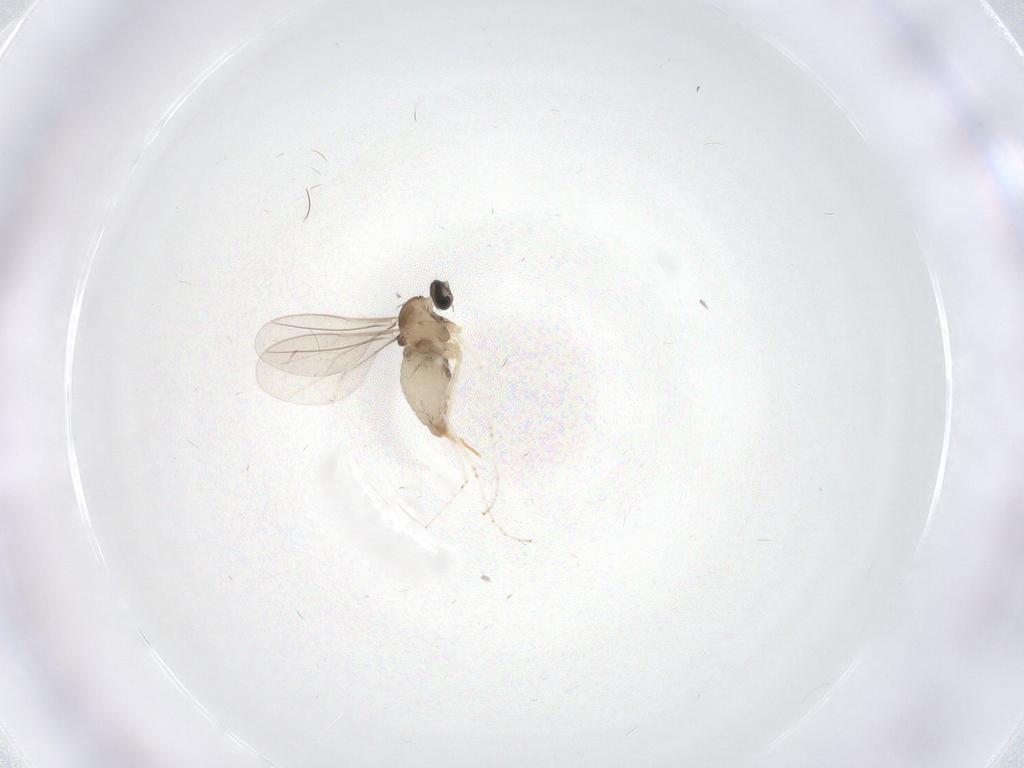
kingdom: Animalia
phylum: Arthropoda
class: Insecta
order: Diptera
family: Cecidomyiidae
